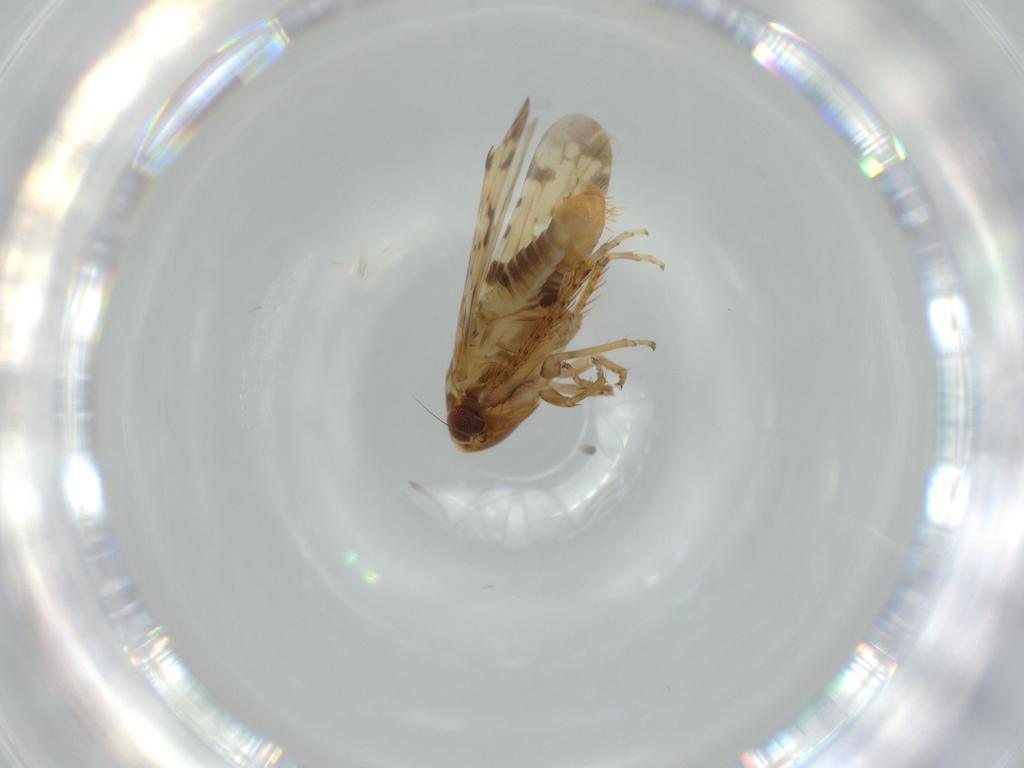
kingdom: Animalia
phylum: Arthropoda
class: Insecta
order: Hemiptera
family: Cicadellidae
